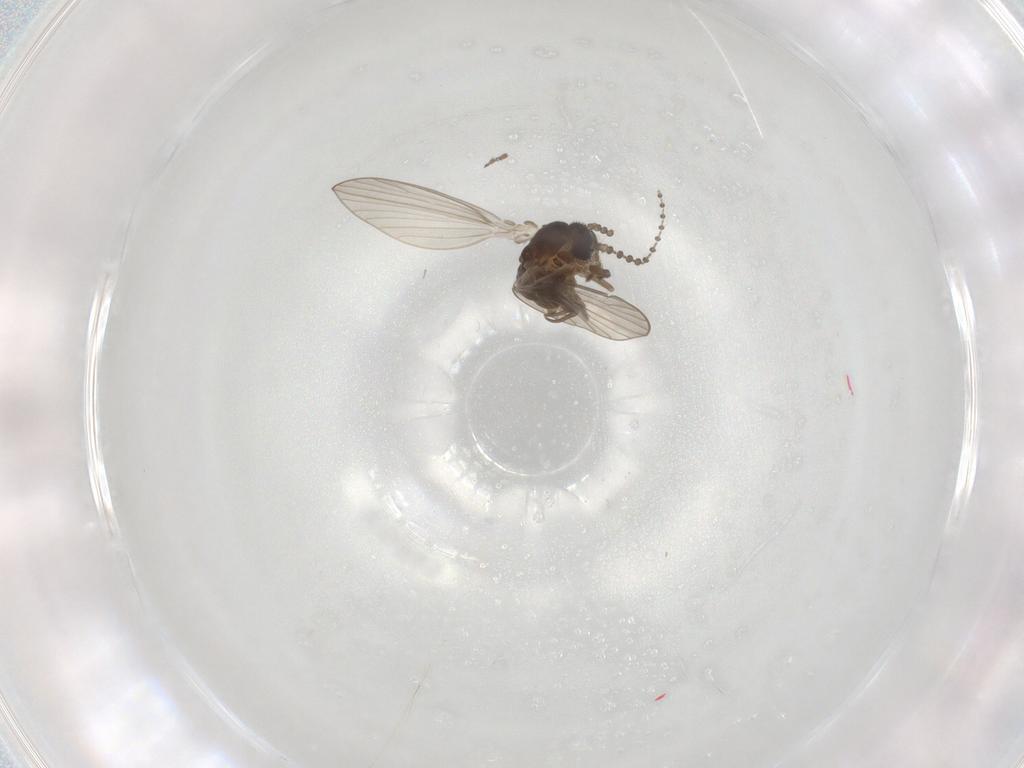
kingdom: Animalia
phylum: Arthropoda
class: Insecta
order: Diptera
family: Psychodidae
